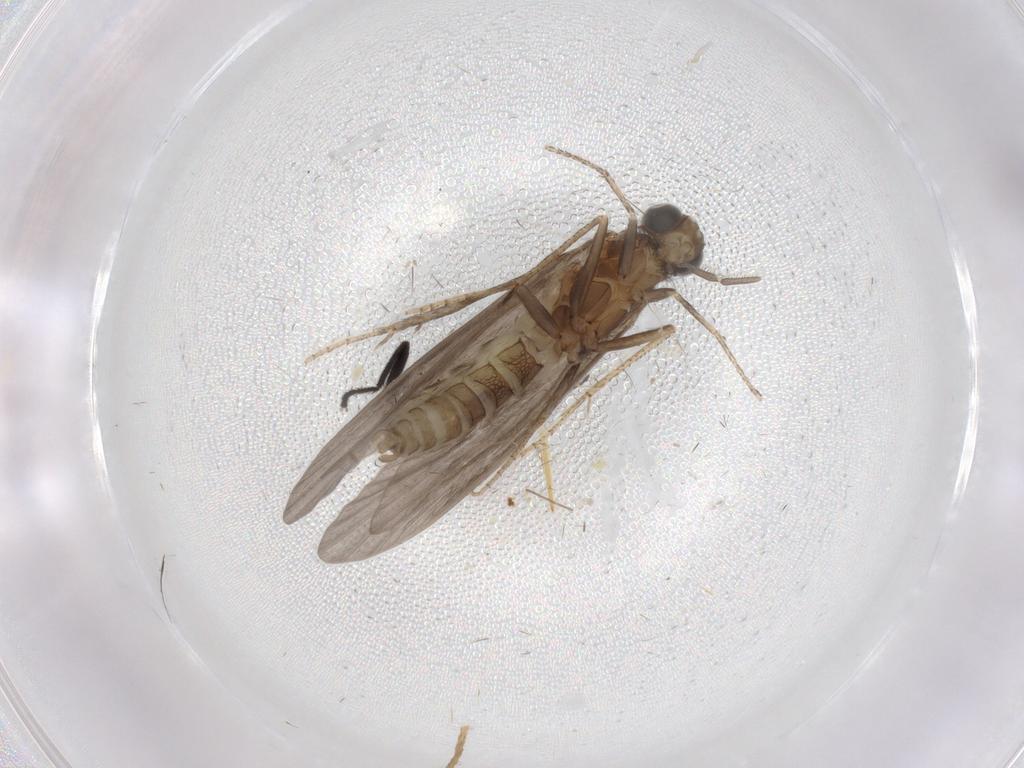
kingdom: Animalia
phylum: Arthropoda
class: Insecta
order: Trichoptera
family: Helicopsychidae
